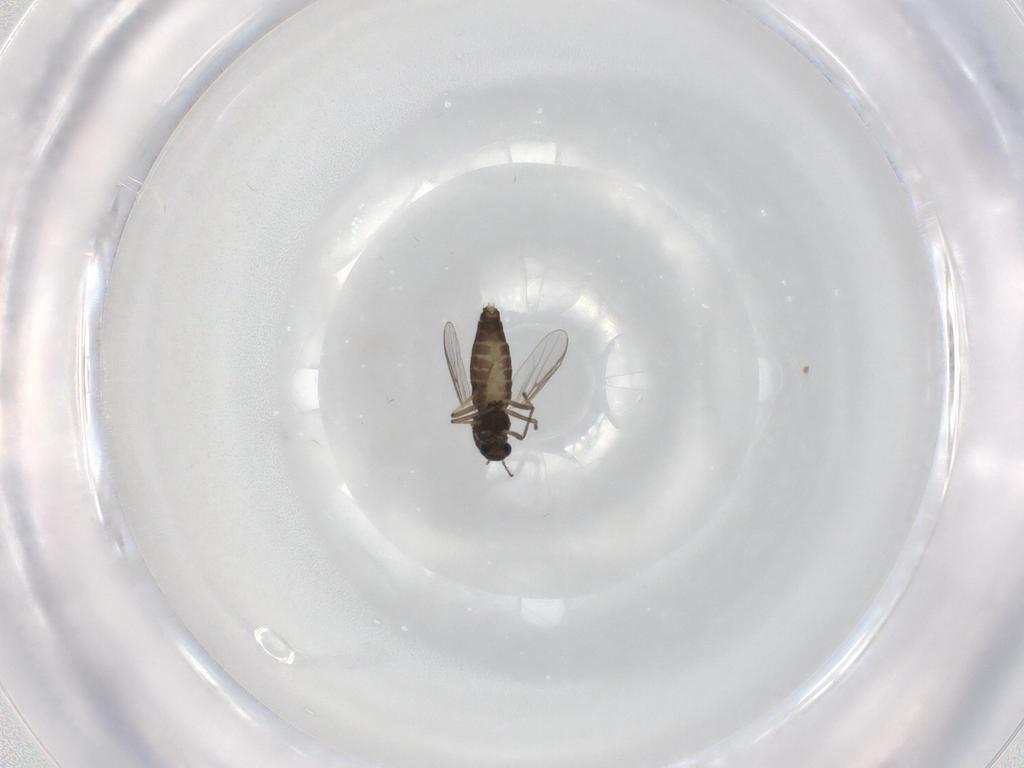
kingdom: Animalia
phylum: Arthropoda
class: Insecta
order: Diptera
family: Chironomidae
